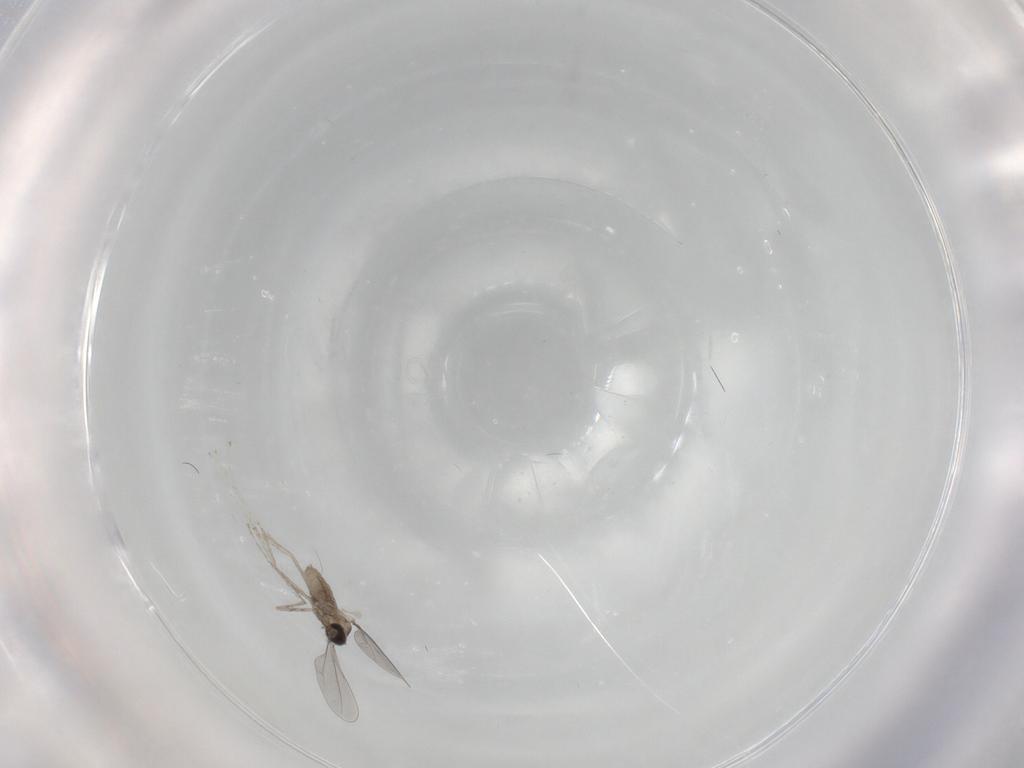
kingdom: Animalia
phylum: Arthropoda
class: Insecta
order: Diptera
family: Cecidomyiidae
